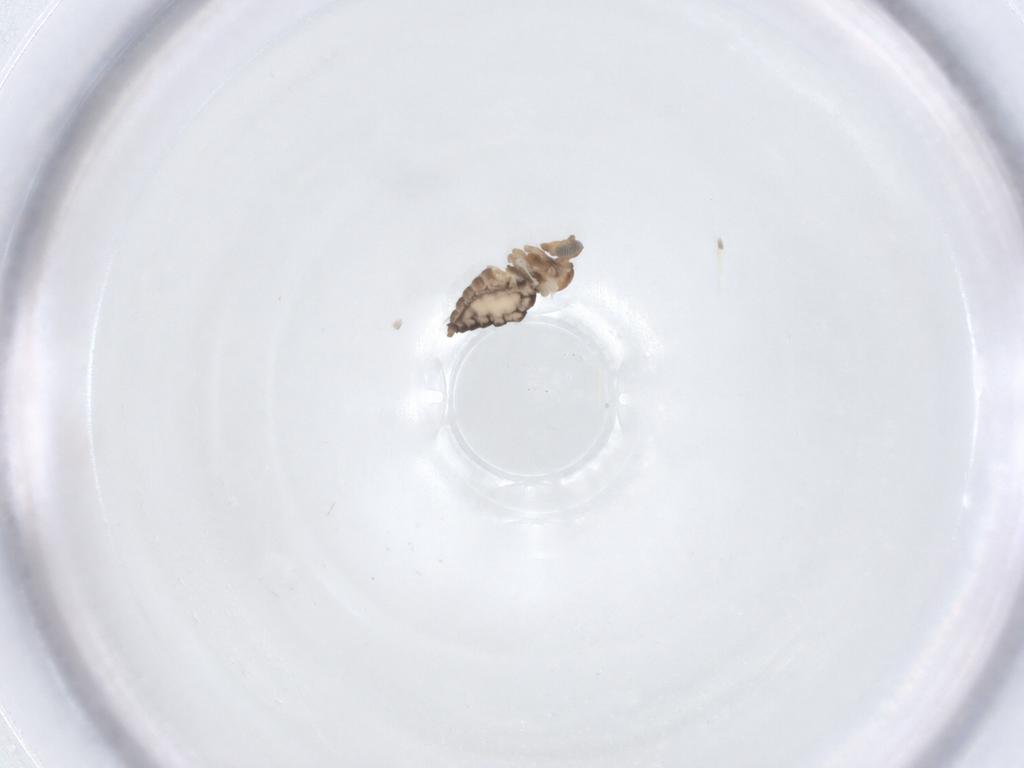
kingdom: Animalia
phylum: Arthropoda
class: Insecta
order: Diptera
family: Cecidomyiidae
